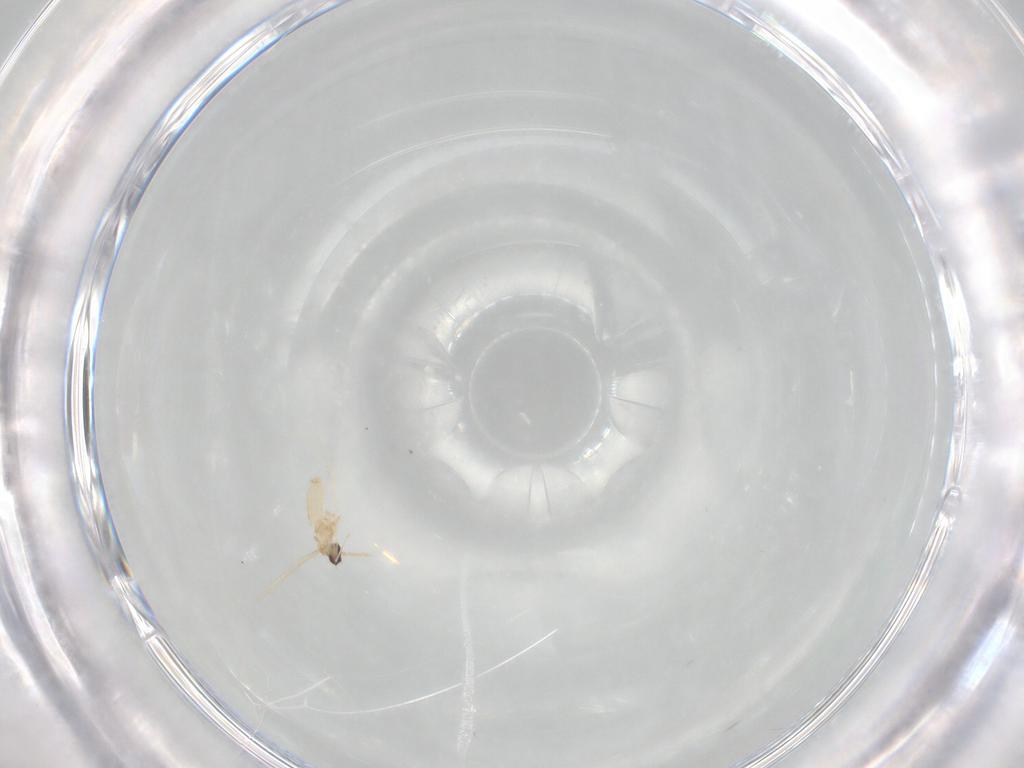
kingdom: Animalia
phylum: Arthropoda
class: Insecta
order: Diptera
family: Cecidomyiidae
